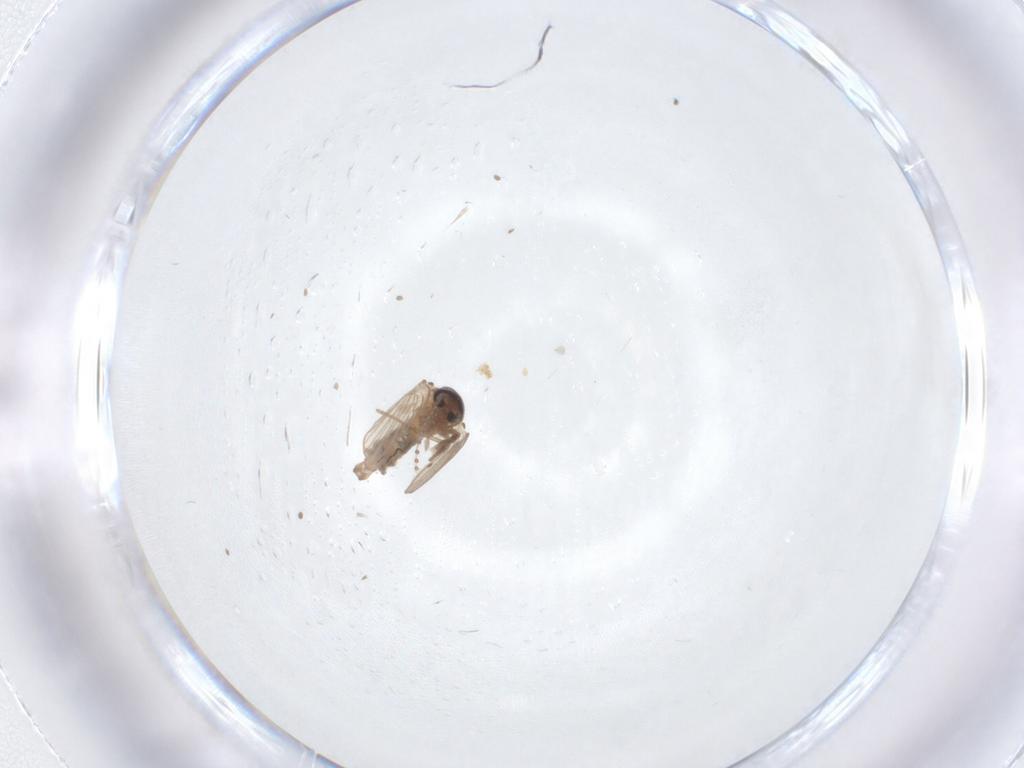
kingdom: Animalia
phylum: Arthropoda
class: Insecta
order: Diptera
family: Psychodidae
